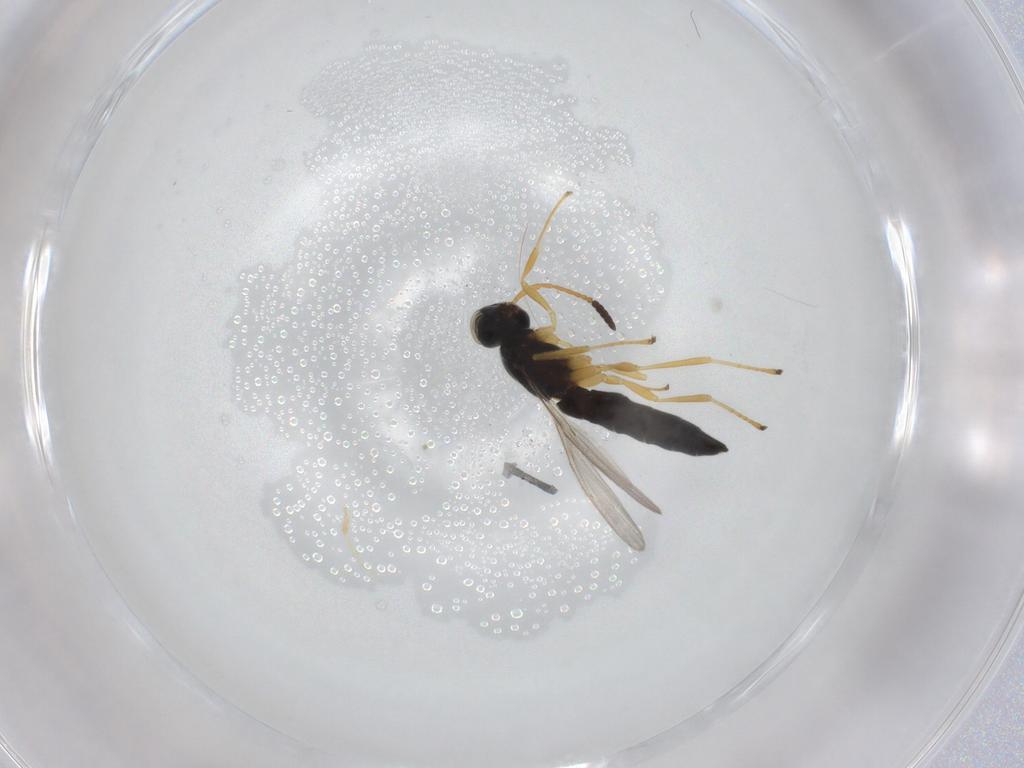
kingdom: Animalia
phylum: Arthropoda
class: Insecta
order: Hymenoptera
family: Scelionidae
